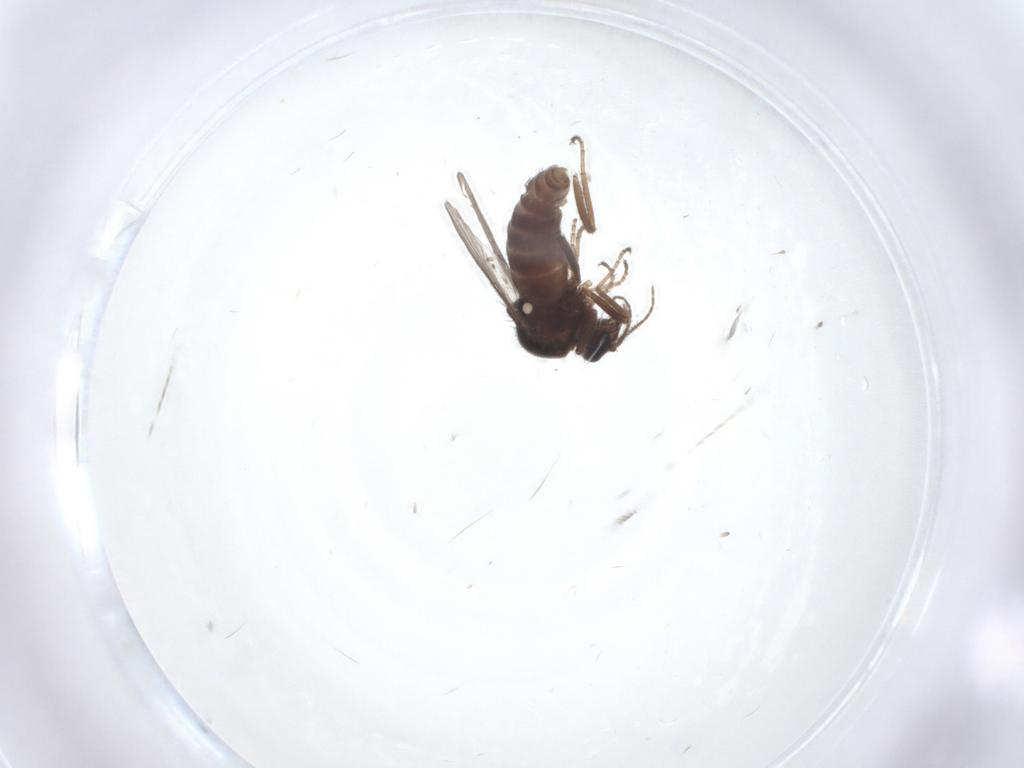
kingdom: Animalia
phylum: Arthropoda
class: Insecta
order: Diptera
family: Ceratopogonidae
